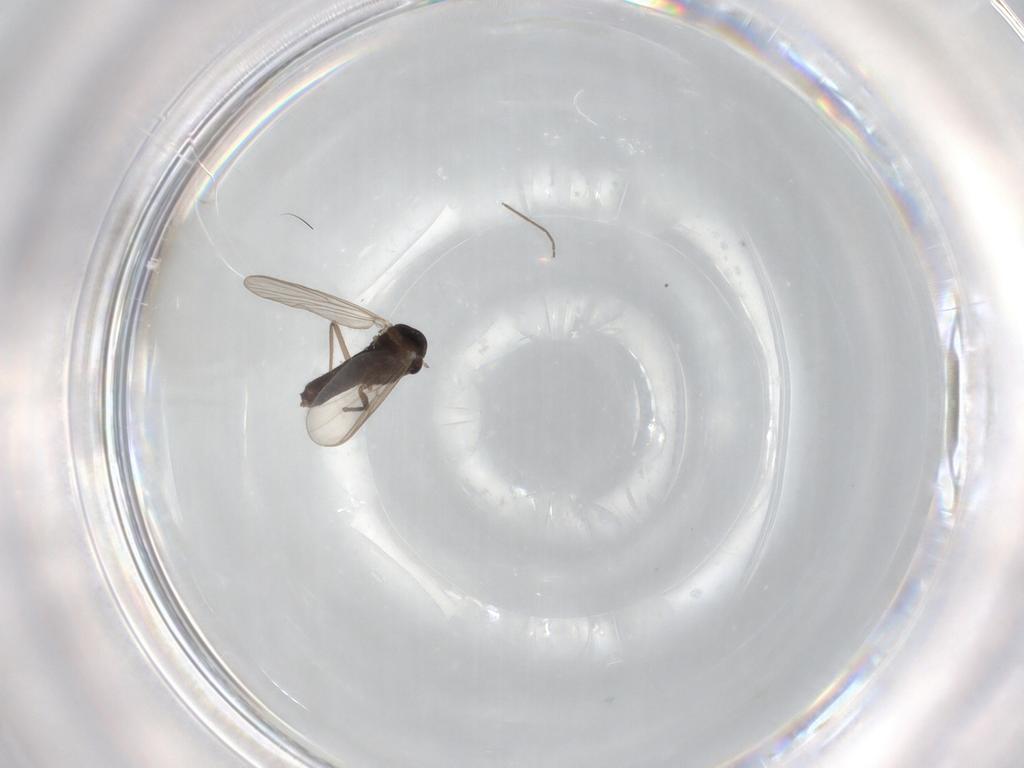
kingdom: Animalia
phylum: Arthropoda
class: Insecta
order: Diptera
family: Chironomidae
